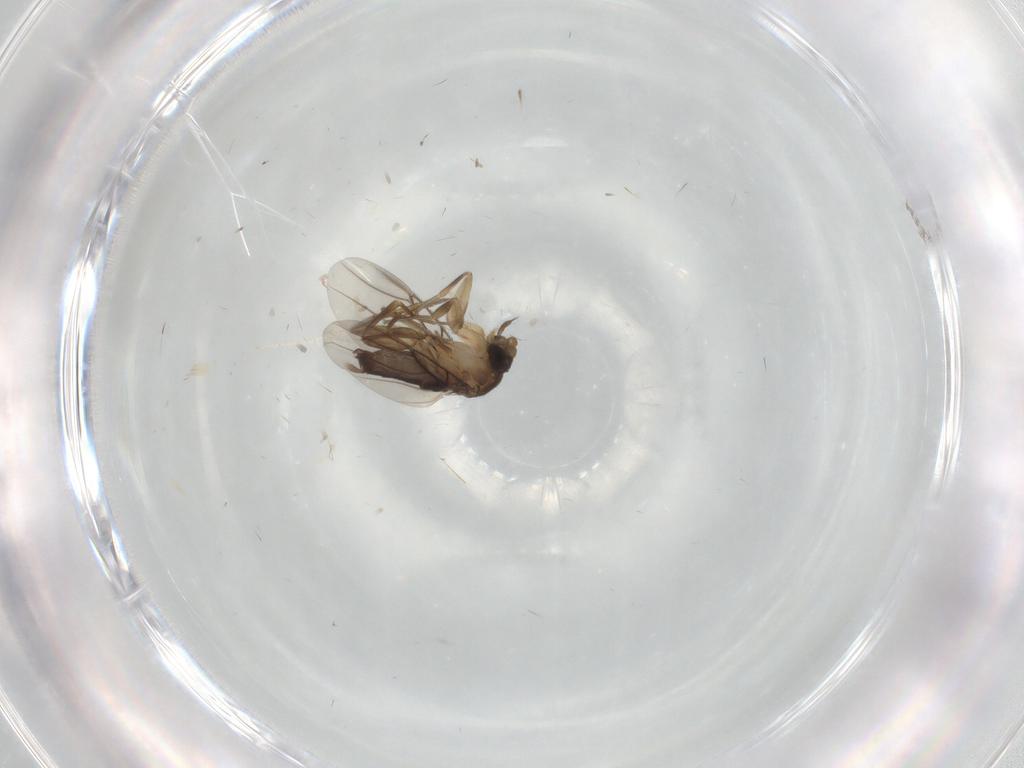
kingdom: Animalia
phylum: Arthropoda
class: Insecta
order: Diptera
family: Phoridae
